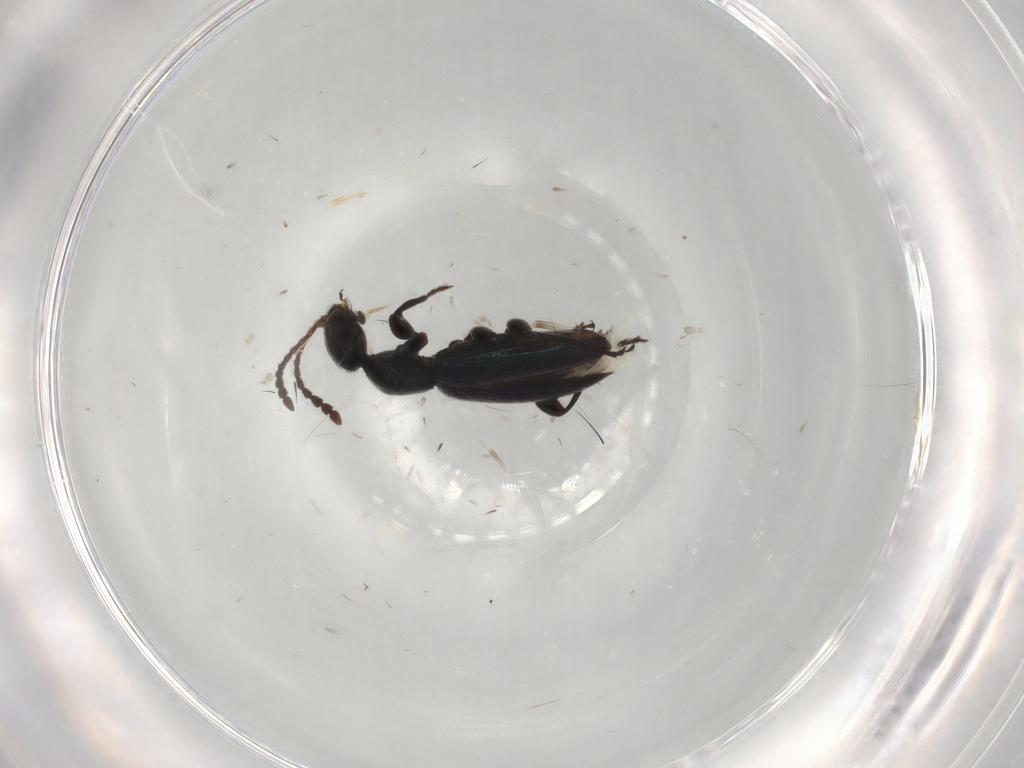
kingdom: Animalia
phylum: Arthropoda
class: Insecta
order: Coleoptera
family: Anthicidae
